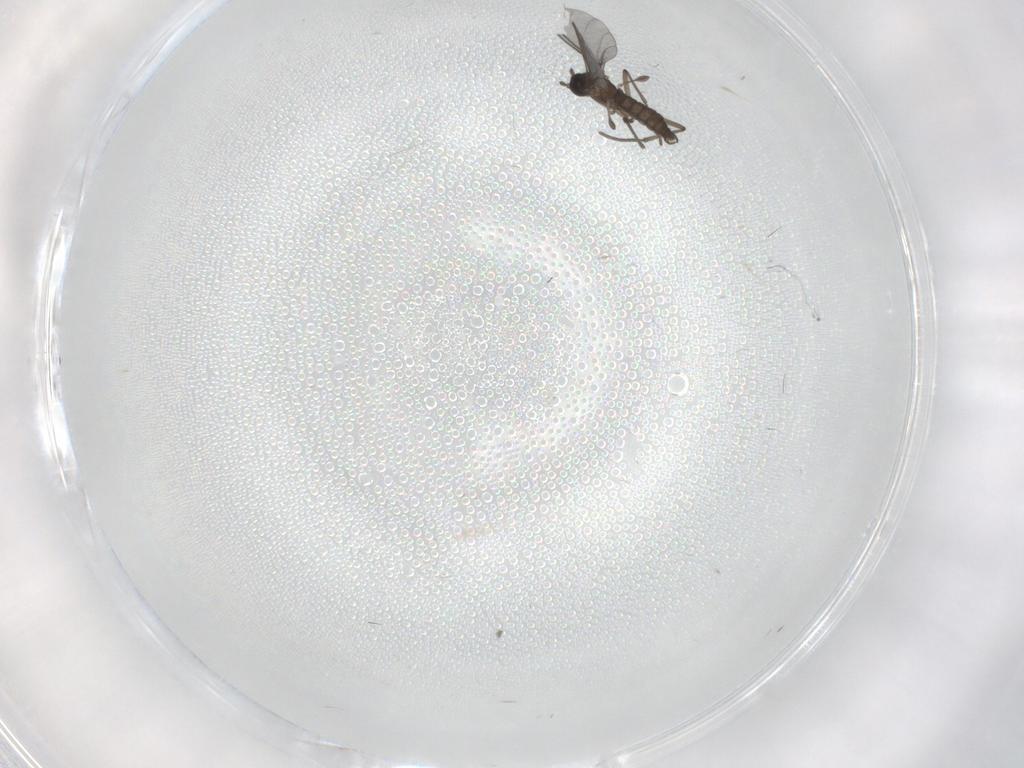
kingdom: Animalia
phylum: Arthropoda
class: Insecta
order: Diptera
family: Cecidomyiidae
